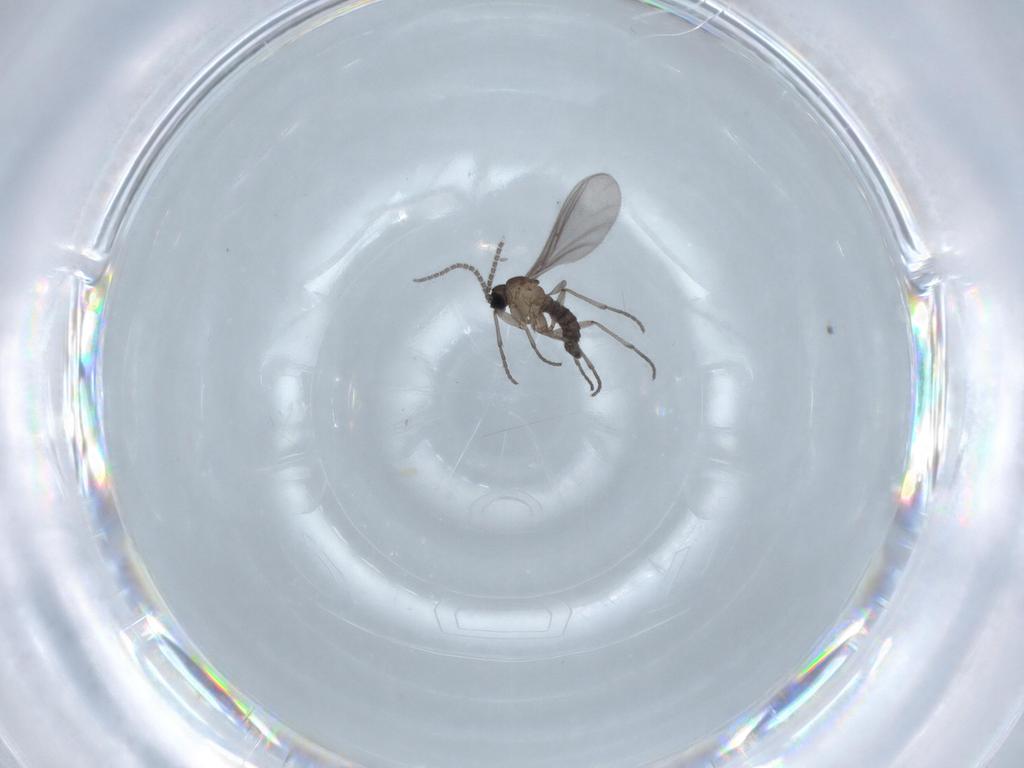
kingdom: Animalia
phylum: Arthropoda
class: Insecta
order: Diptera
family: Sciaridae
